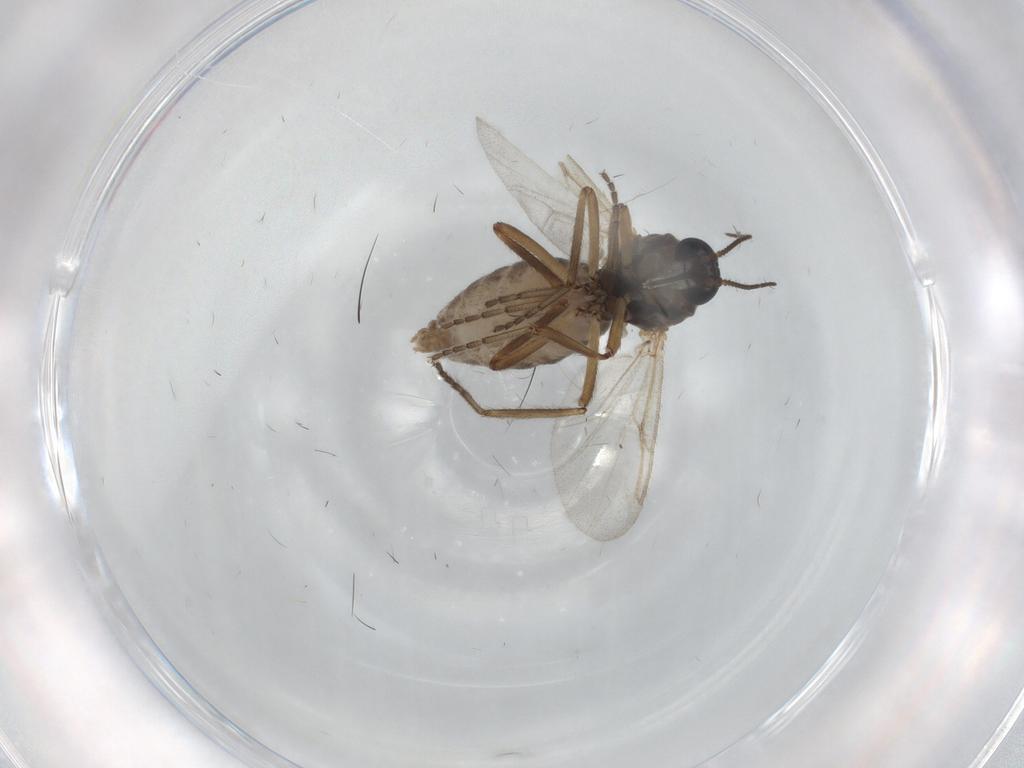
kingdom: Animalia
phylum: Arthropoda
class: Insecta
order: Diptera
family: Ceratopogonidae
